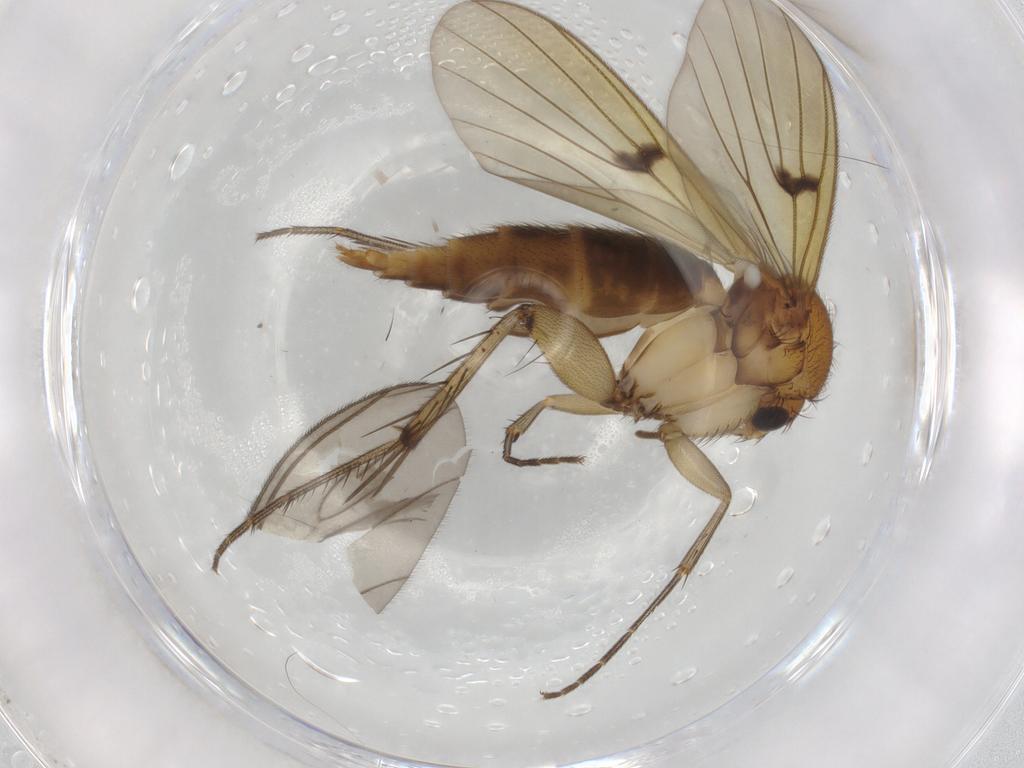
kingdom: Animalia
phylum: Arthropoda
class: Insecta
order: Diptera
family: Mycetophilidae
